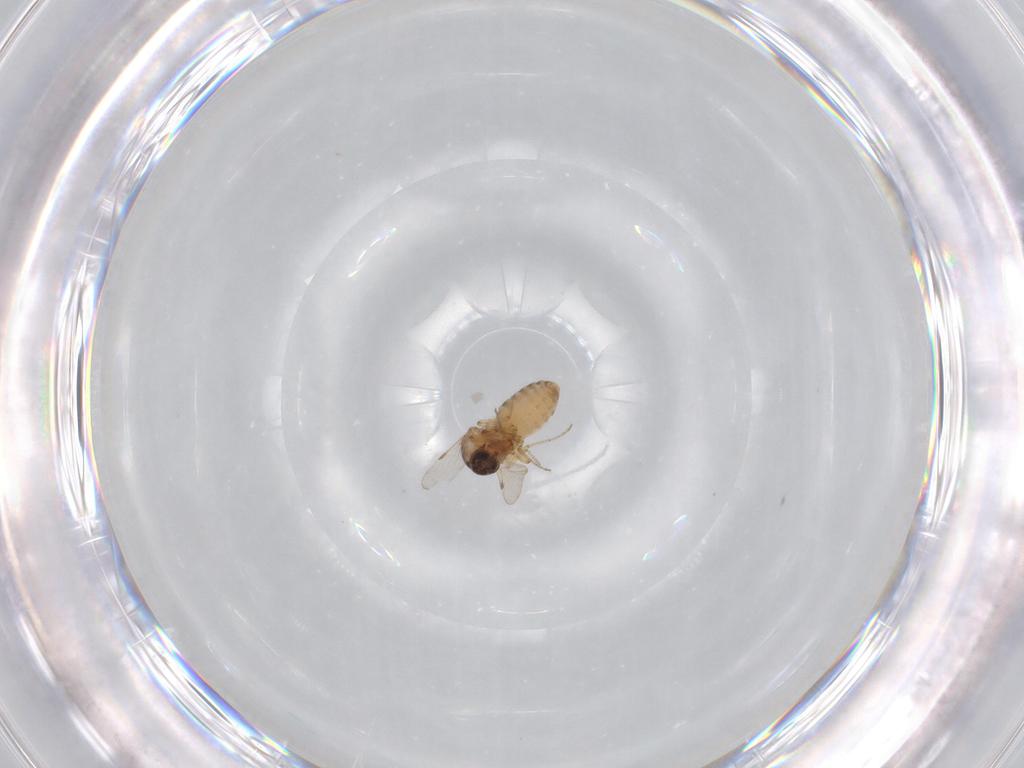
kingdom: Animalia
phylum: Arthropoda
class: Insecta
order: Diptera
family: Ceratopogonidae
